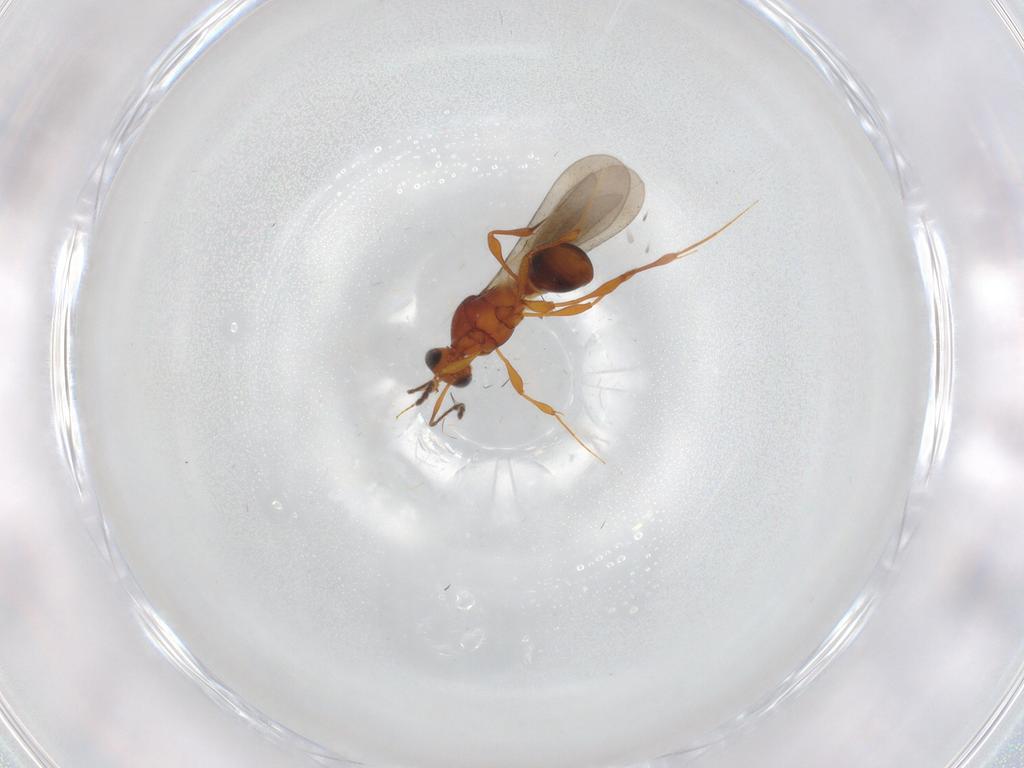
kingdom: Animalia
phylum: Arthropoda
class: Insecta
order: Hymenoptera
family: Platygastridae
